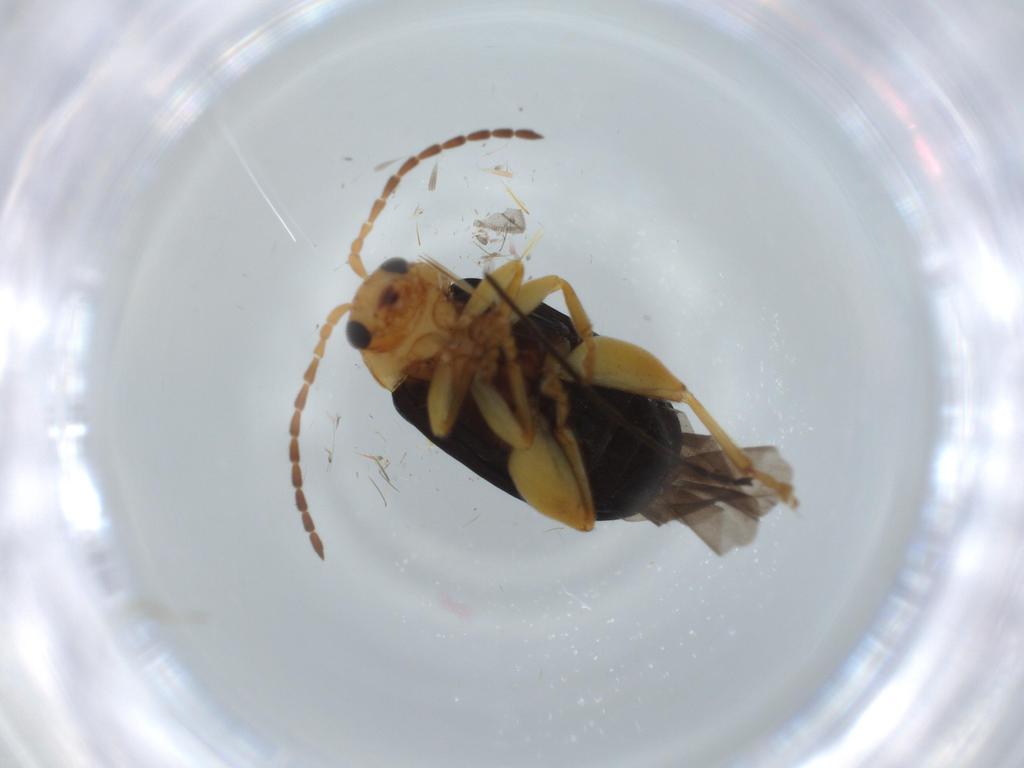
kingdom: Animalia
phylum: Arthropoda
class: Insecta
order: Coleoptera
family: Chrysomelidae
